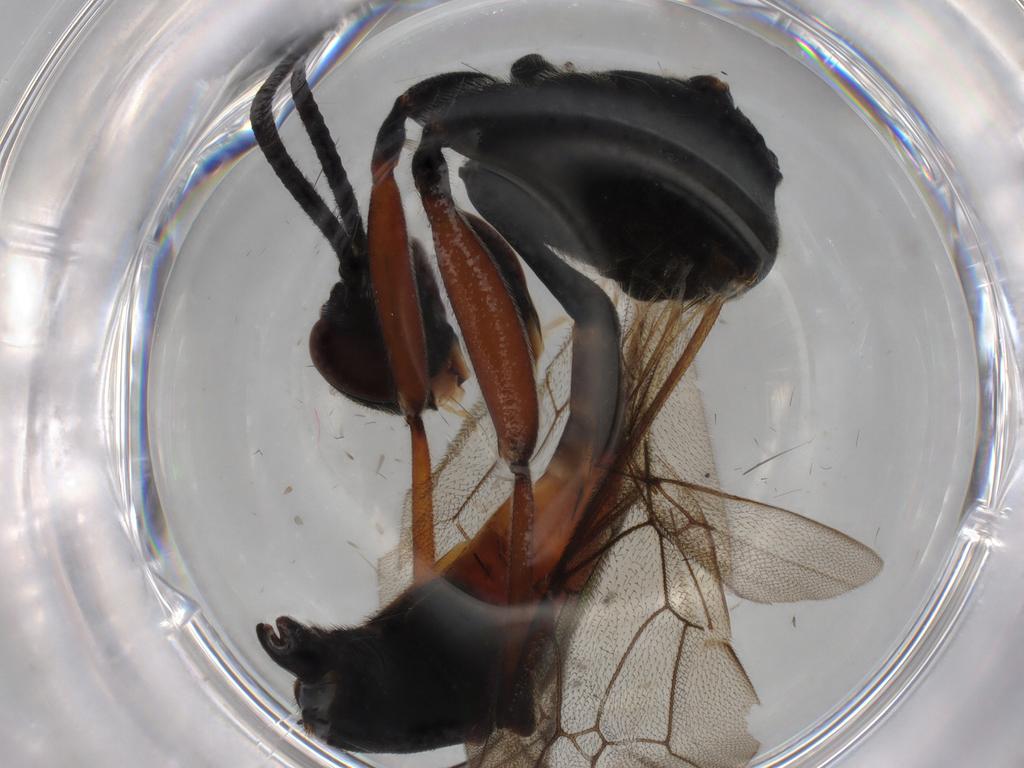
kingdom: Animalia
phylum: Arthropoda
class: Insecta
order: Hymenoptera
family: Ichneumonidae
